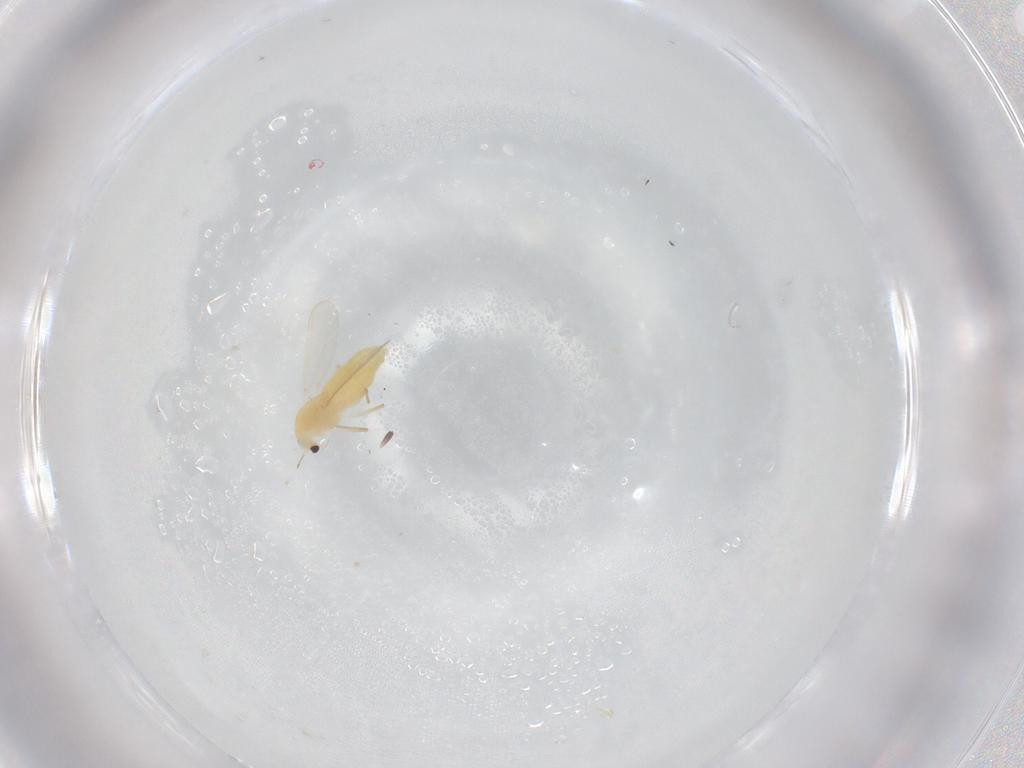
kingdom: Animalia
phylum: Arthropoda
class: Insecta
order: Diptera
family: Chironomidae
